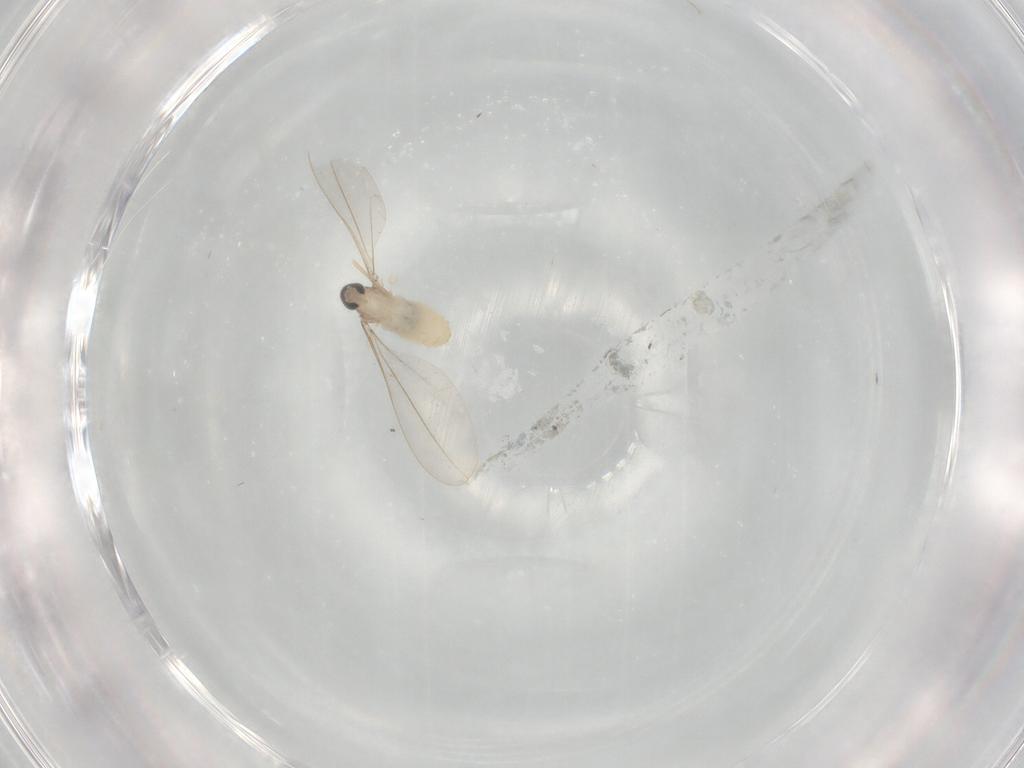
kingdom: Animalia
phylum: Arthropoda
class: Insecta
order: Diptera
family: Cecidomyiidae
